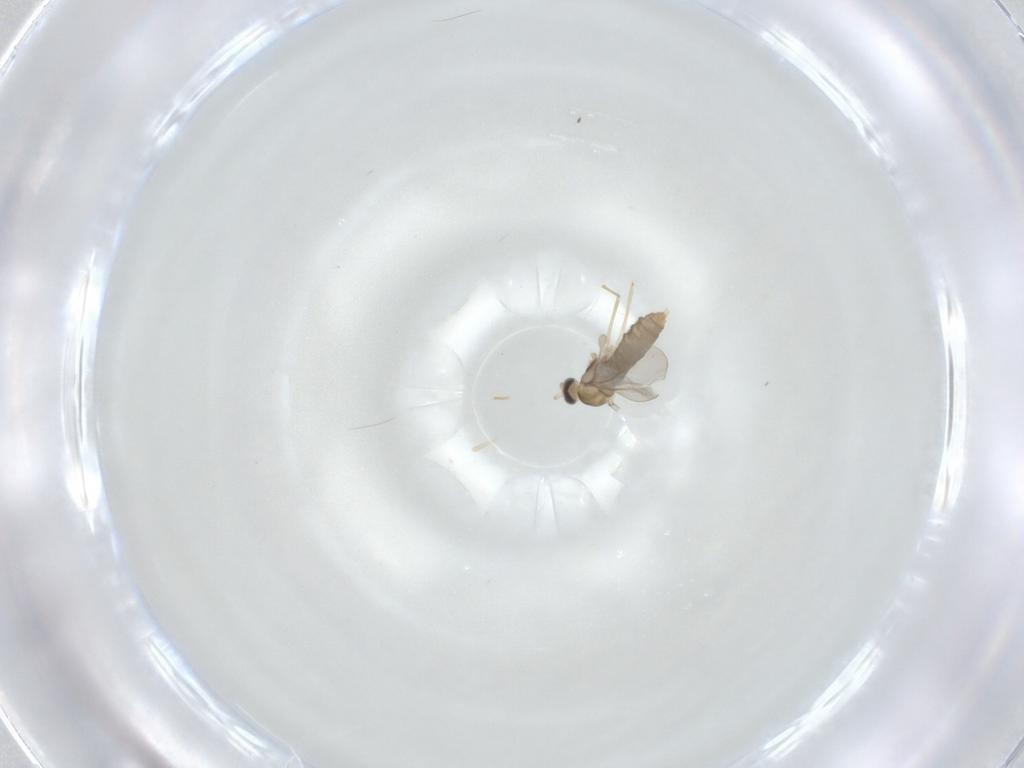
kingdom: Animalia
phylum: Arthropoda
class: Insecta
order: Diptera
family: Cecidomyiidae
